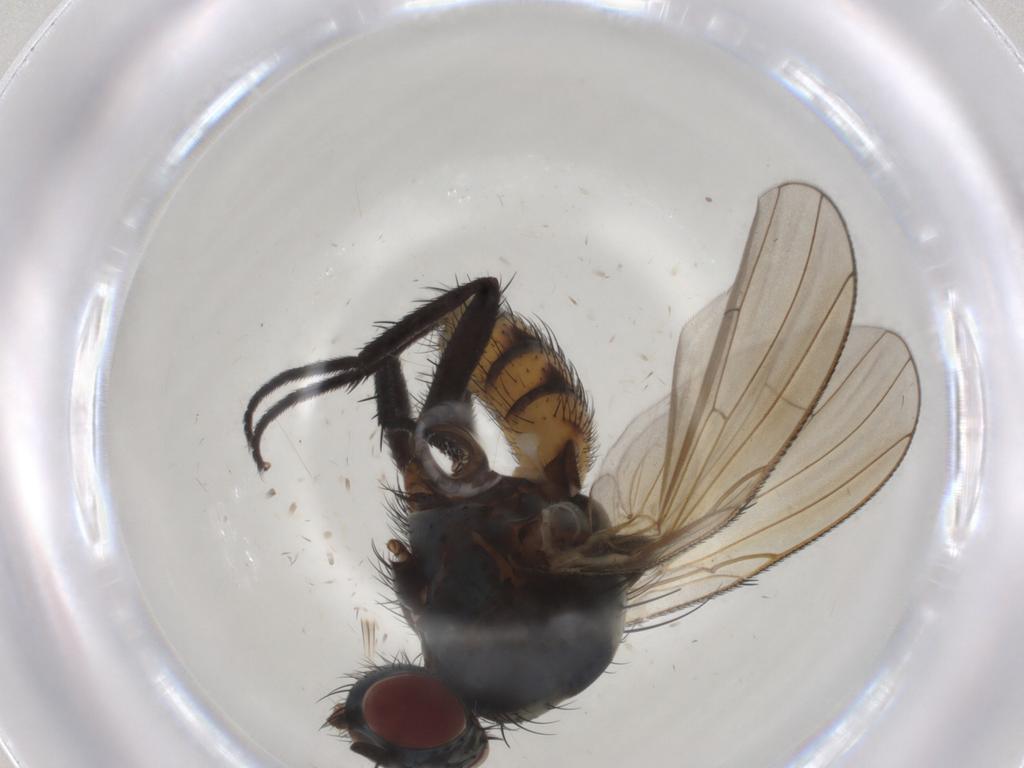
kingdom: Animalia
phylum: Arthropoda
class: Insecta
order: Diptera
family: Anthomyiidae
